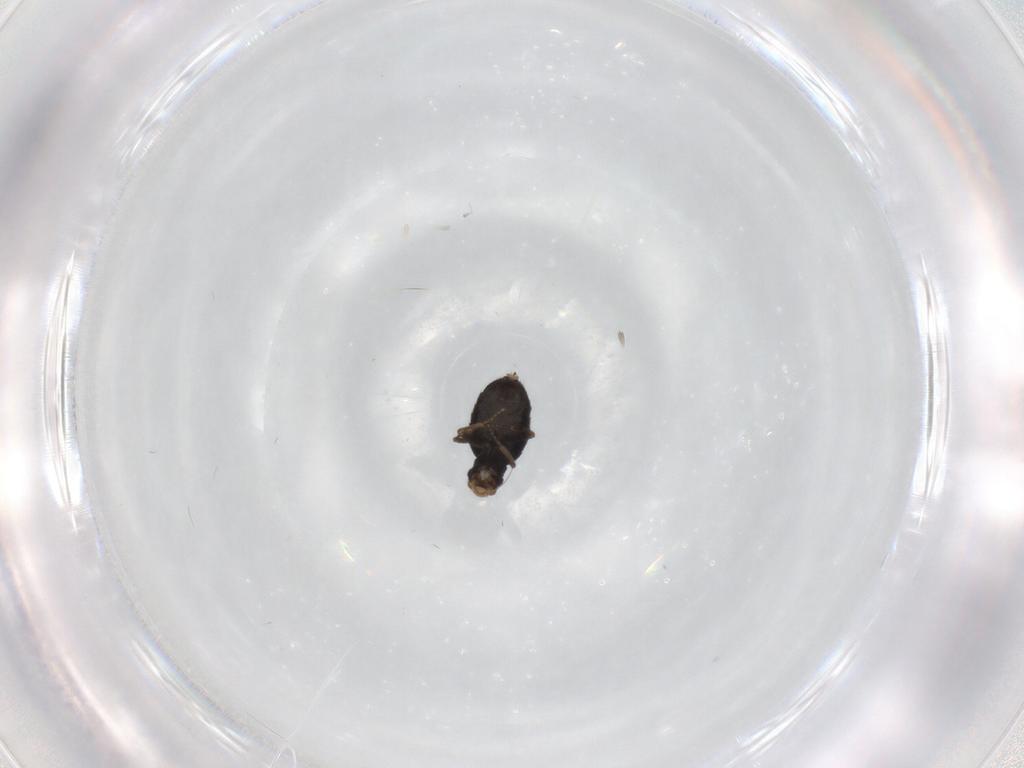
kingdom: Animalia
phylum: Arthropoda
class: Insecta
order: Diptera
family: Phoridae
